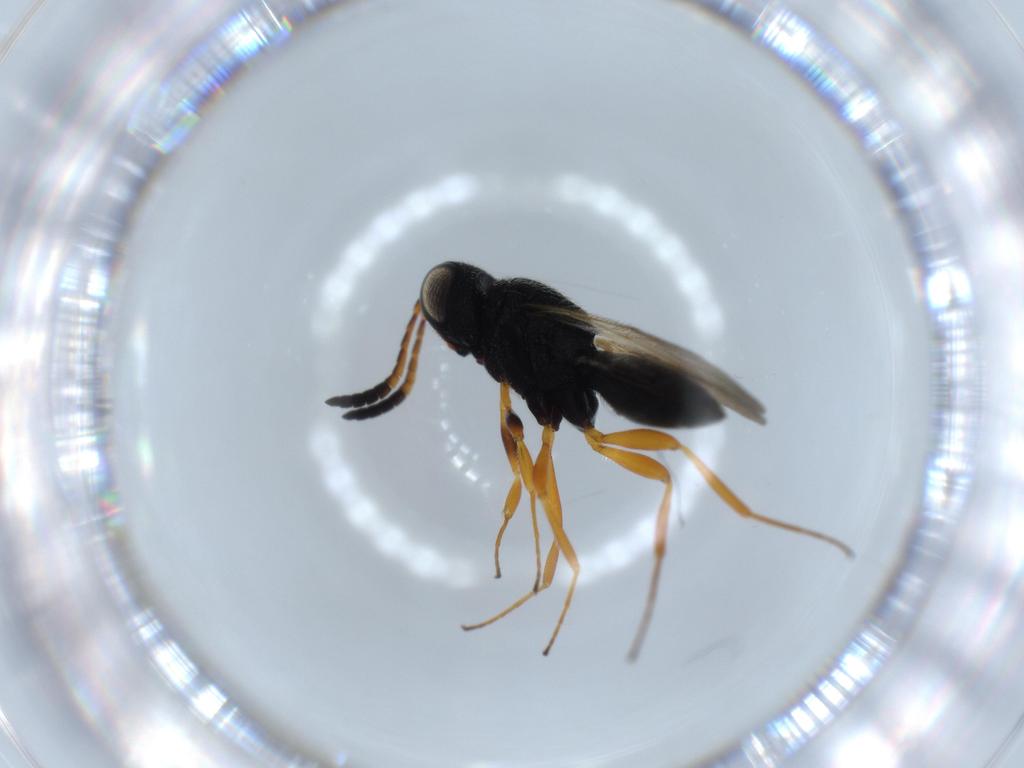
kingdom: Animalia
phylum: Arthropoda
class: Insecta
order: Hymenoptera
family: Scelionidae
